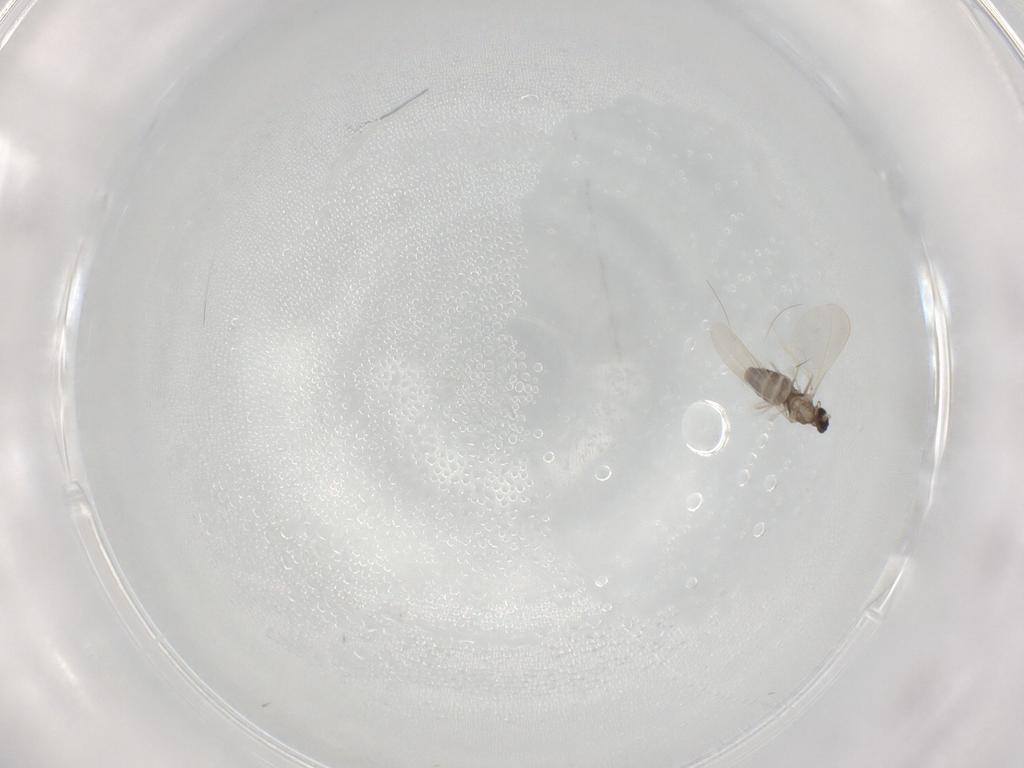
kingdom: Animalia
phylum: Arthropoda
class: Insecta
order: Diptera
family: Cecidomyiidae
